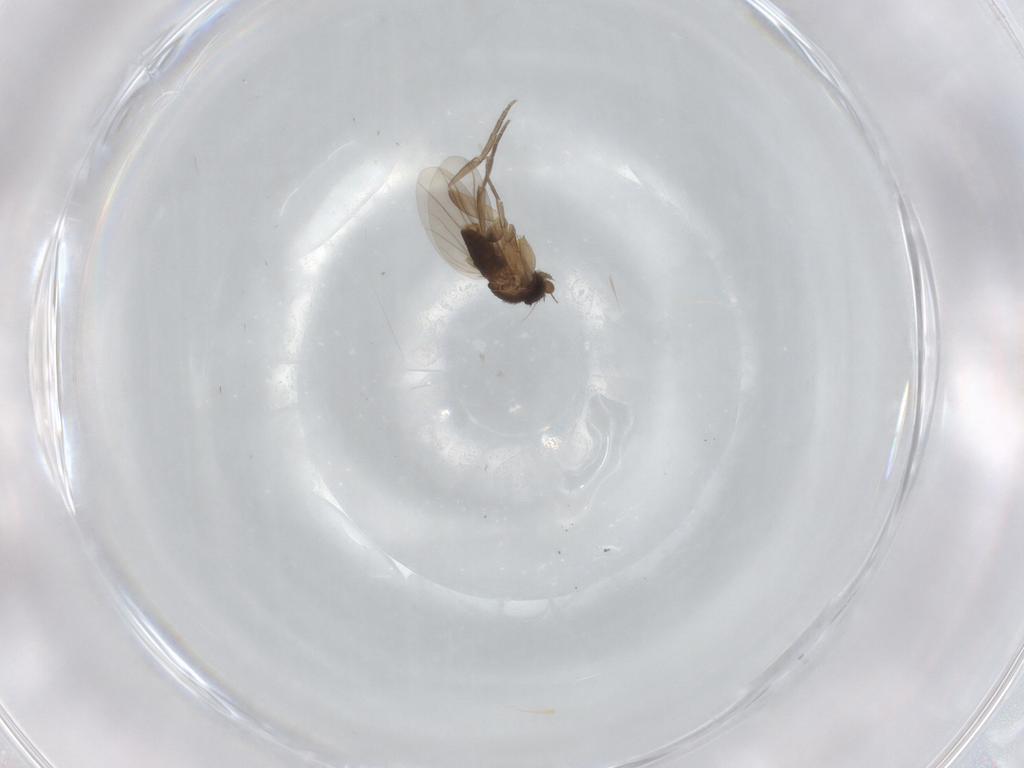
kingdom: Animalia
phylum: Arthropoda
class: Insecta
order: Diptera
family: Phoridae
